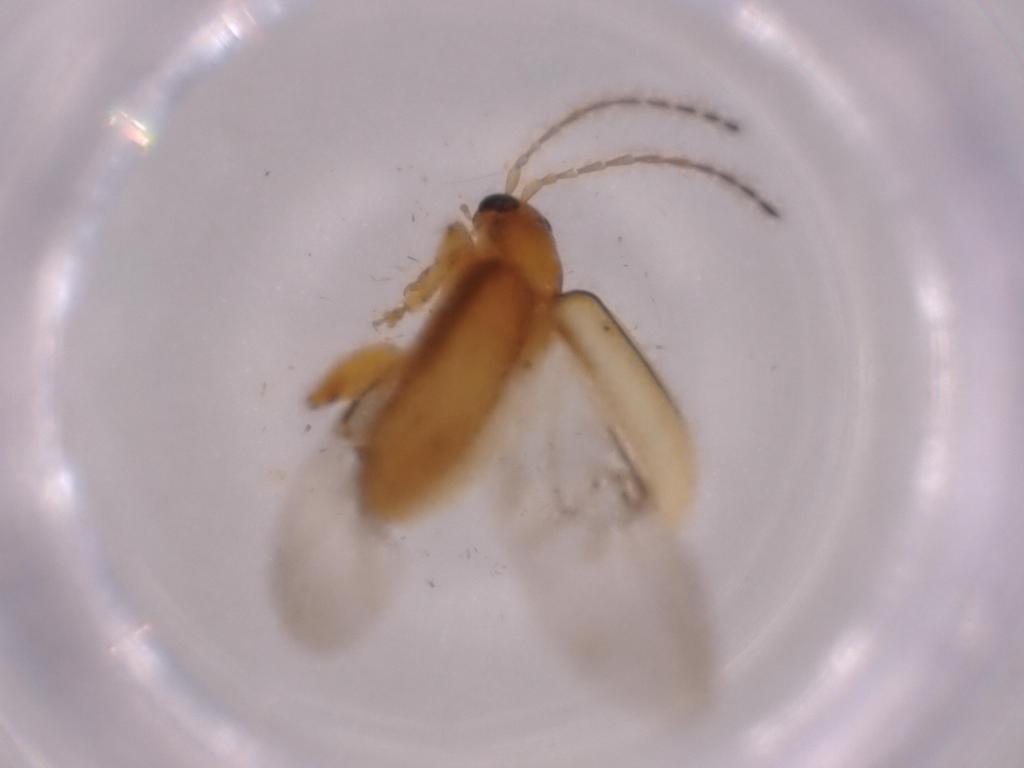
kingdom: Animalia
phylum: Arthropoda
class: Insecta
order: Coleoptera
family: Chrysomelidae
